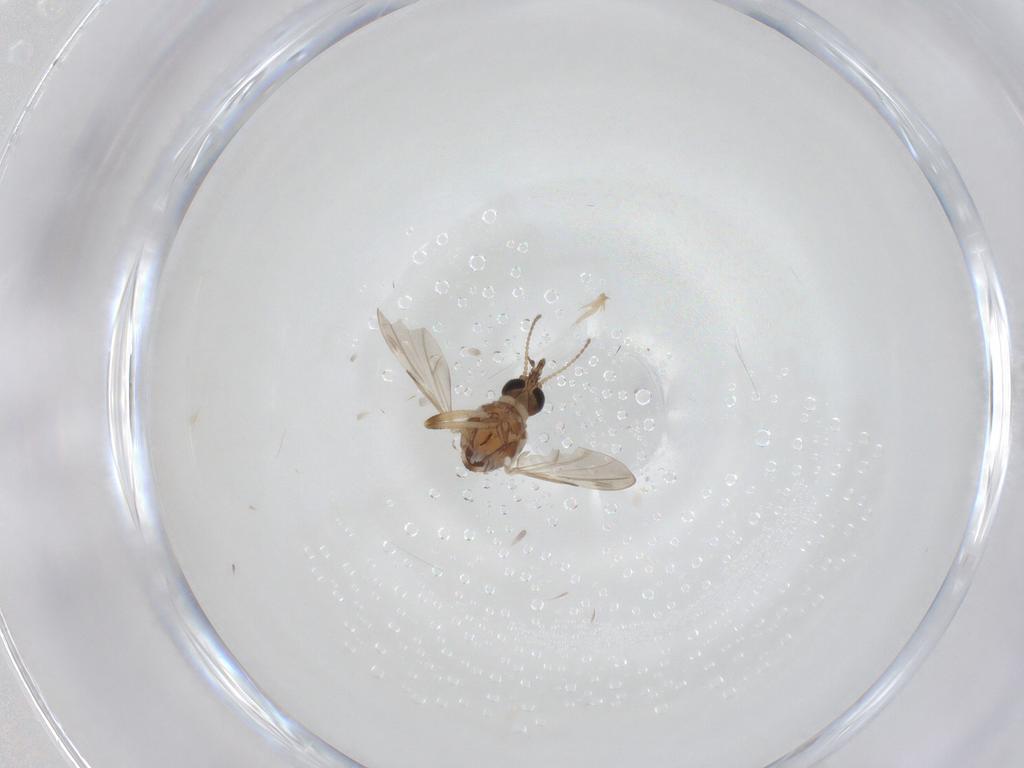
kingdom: Animalia
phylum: Arthropoda
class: Insecta
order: Diptera
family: Ceratopogonidae
